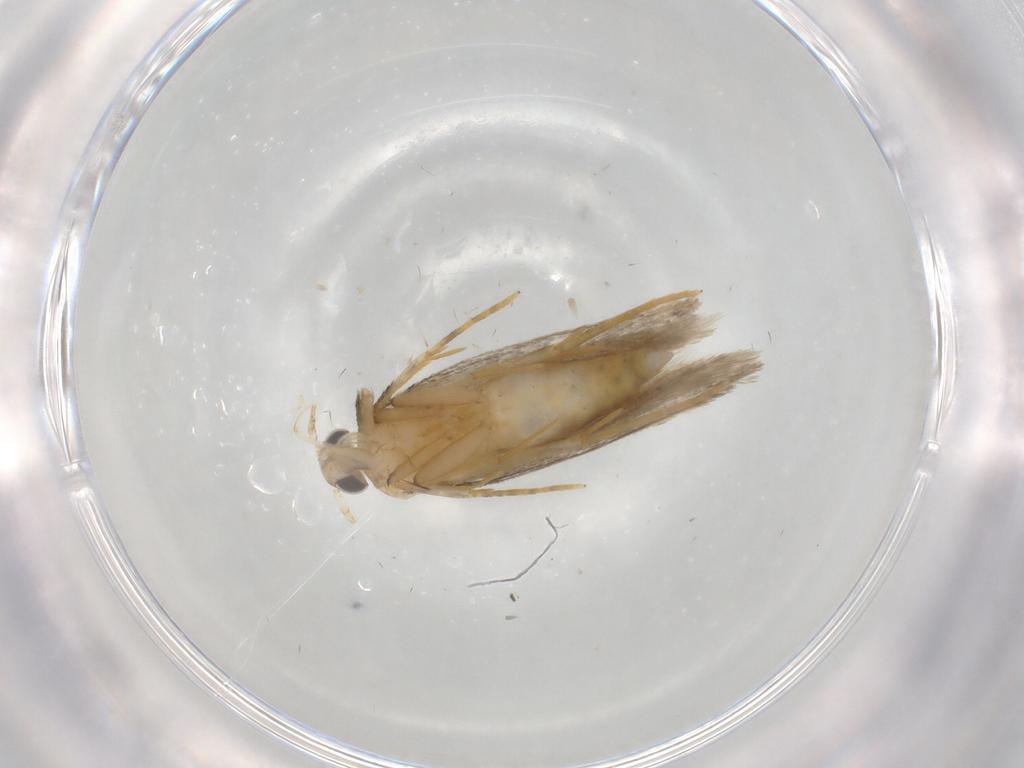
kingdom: Animalia
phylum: Arthropoda
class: Insecta
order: Lepidoptera
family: Autostichidae
